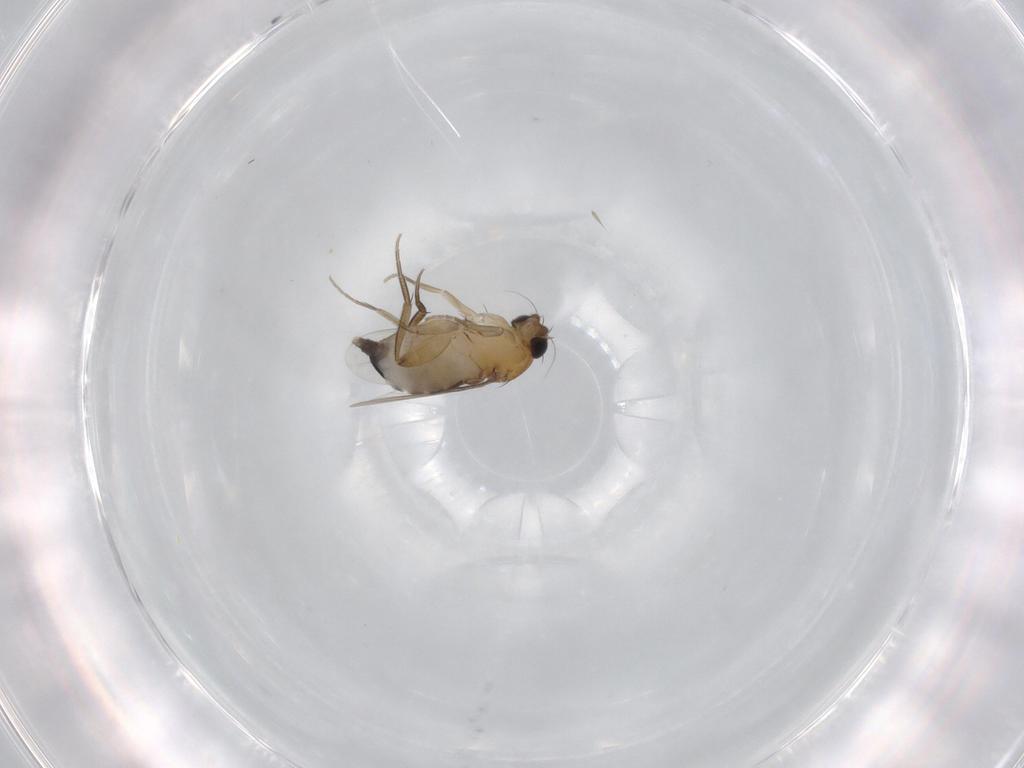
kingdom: Animalia
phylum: Arthropoda
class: Insecta
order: Diptera
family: Phoridae
